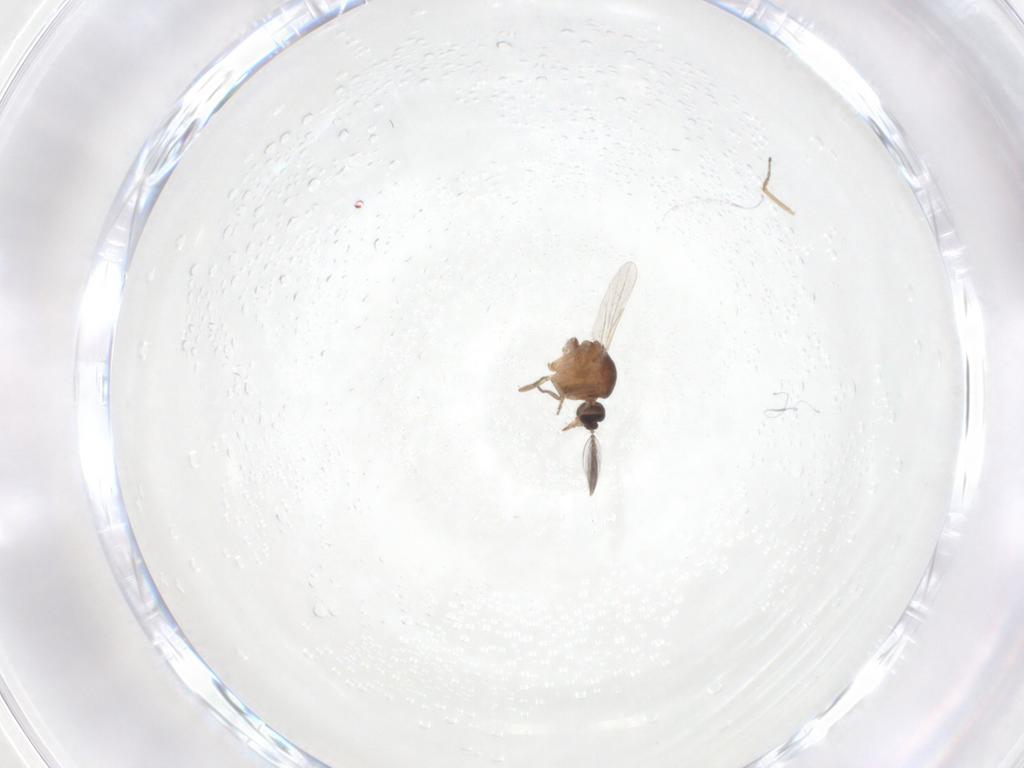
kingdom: Animalia
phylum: Arthropoda
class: Insecta
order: Diptera
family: Ceratopogonidae
